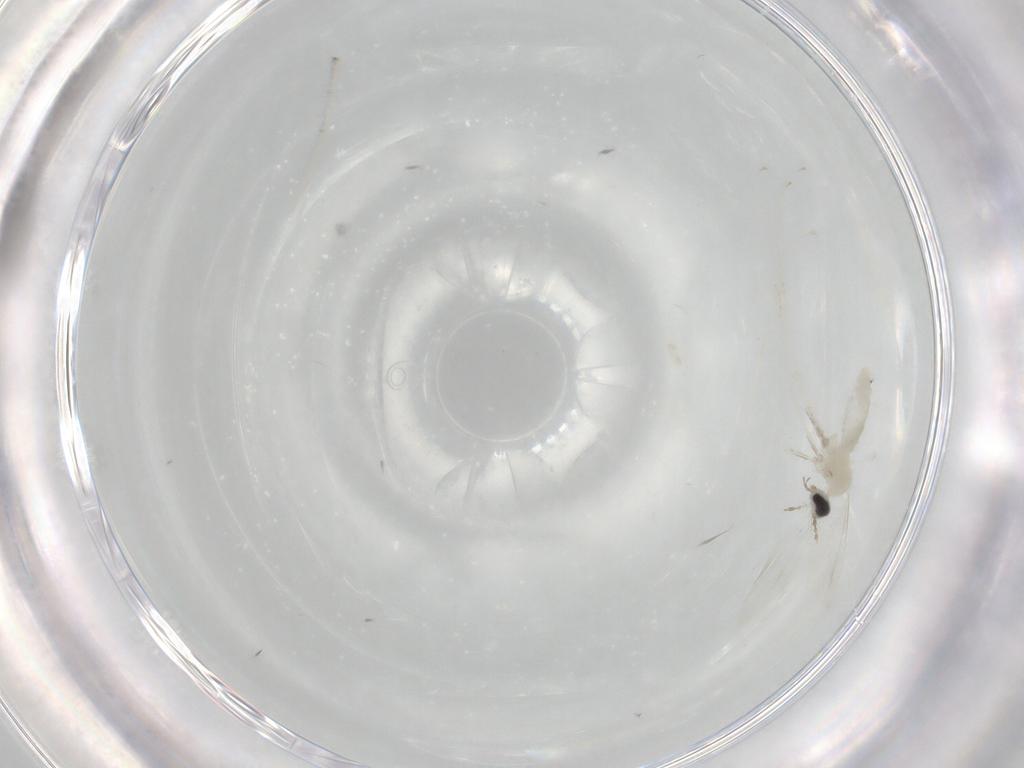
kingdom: Animalia
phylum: Arthropoda
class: Insecta
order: Diptera
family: Cecidomyiidae
